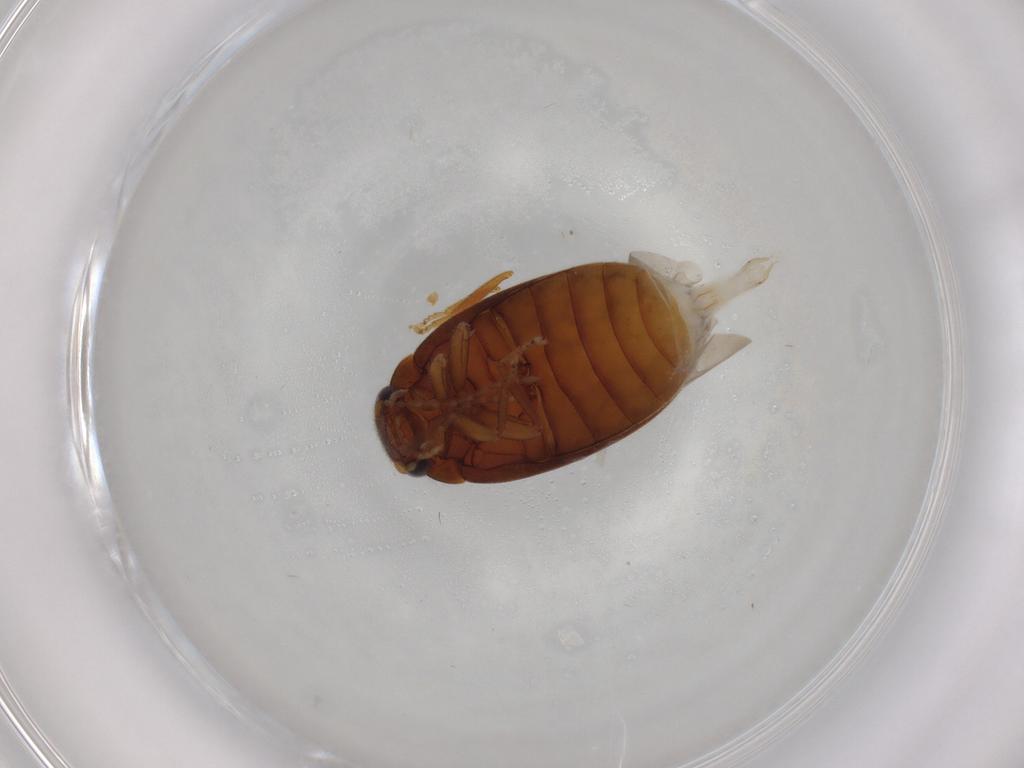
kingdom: Animalia
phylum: Arthropoda
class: Insecta
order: Coleoptera
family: Scirtidae
